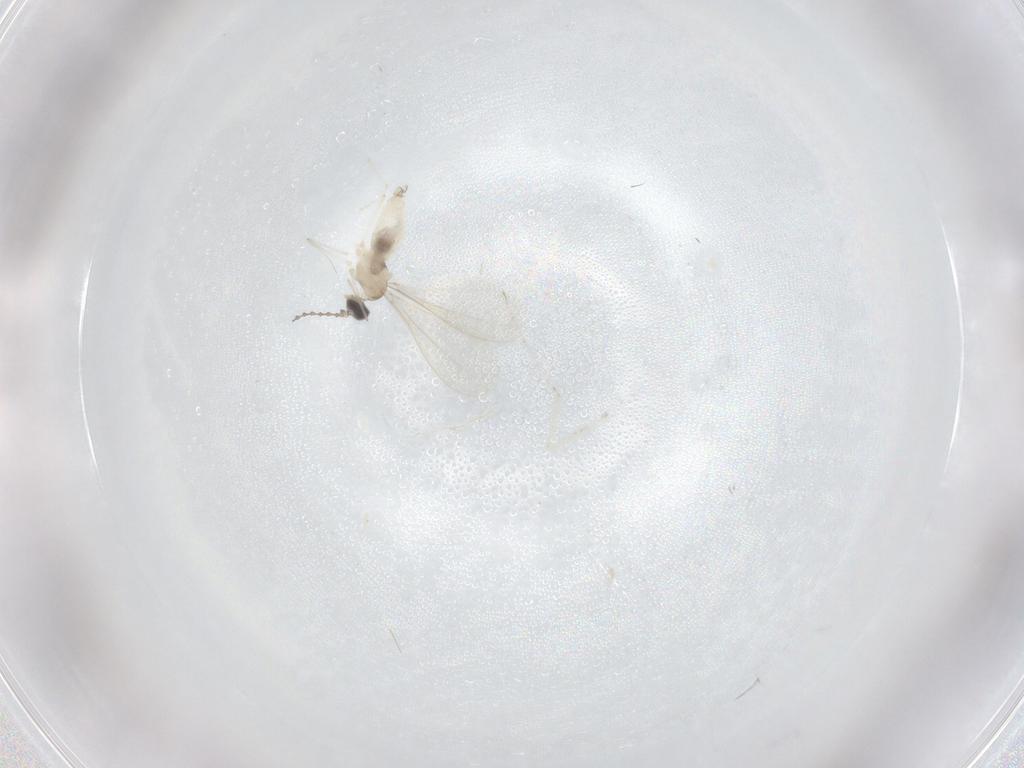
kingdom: Animalia
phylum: Arthropoda
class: Insecta
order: Diptera
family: Cecidomyiidae
